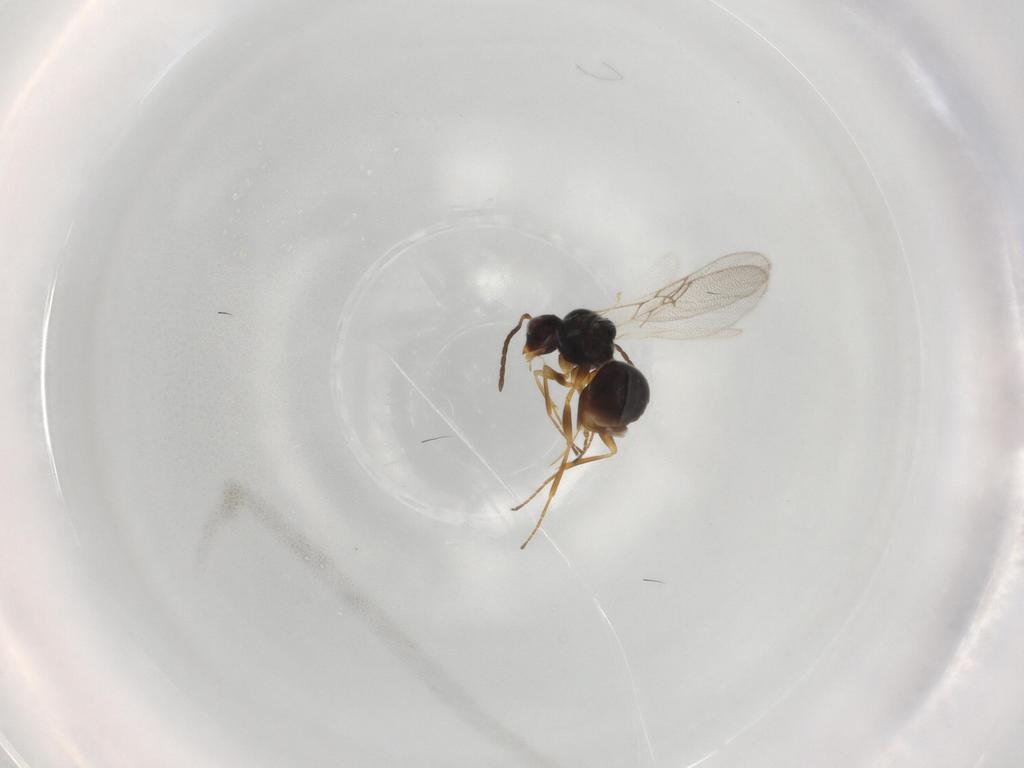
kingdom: Animalia
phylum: Arthropoda
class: Insecta
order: Hymenoptera
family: Figitidae
